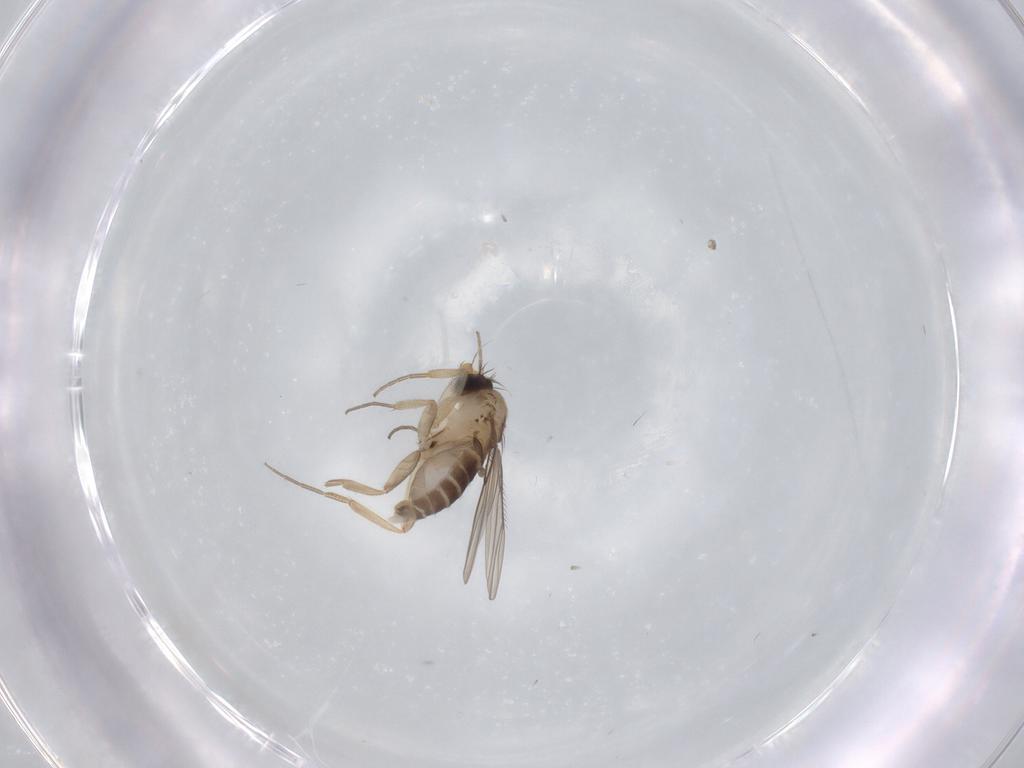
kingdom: Animalia
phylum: Arthropoda
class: Insecta
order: Diptera
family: Phoridae
